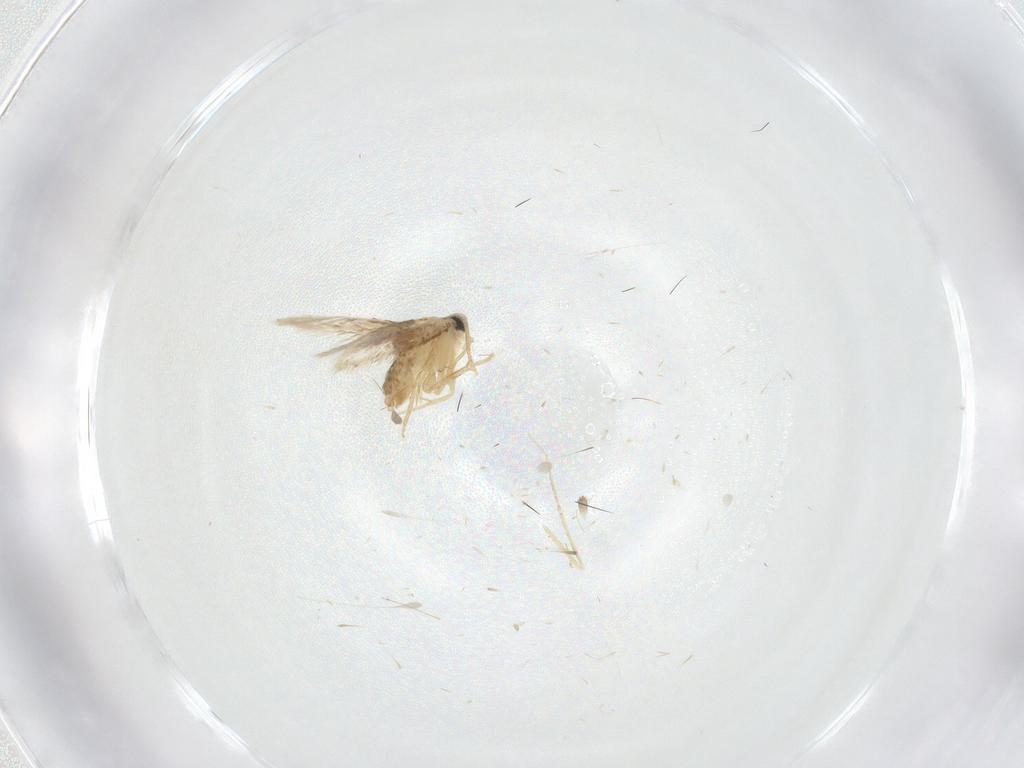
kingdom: Animalia
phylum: Arthropoda
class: Insecta
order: Lepidoptera
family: Nepticulidae
